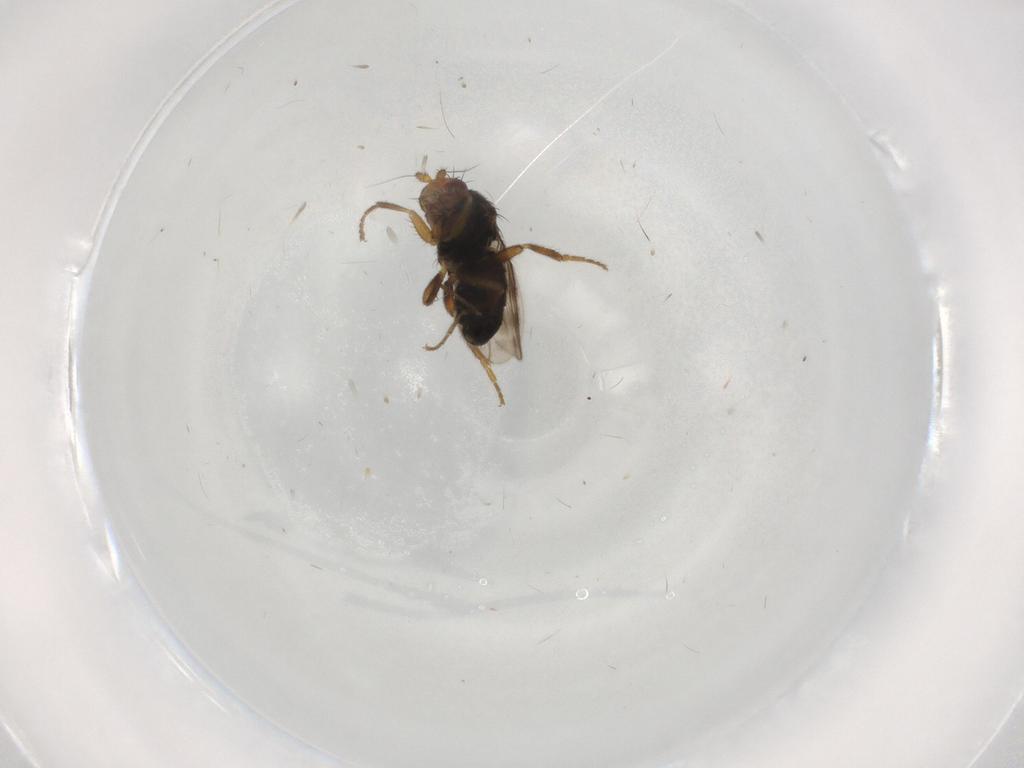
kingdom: Animalia
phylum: Arthropoda
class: Insecta
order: Diptera
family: Sphaeroceridae
